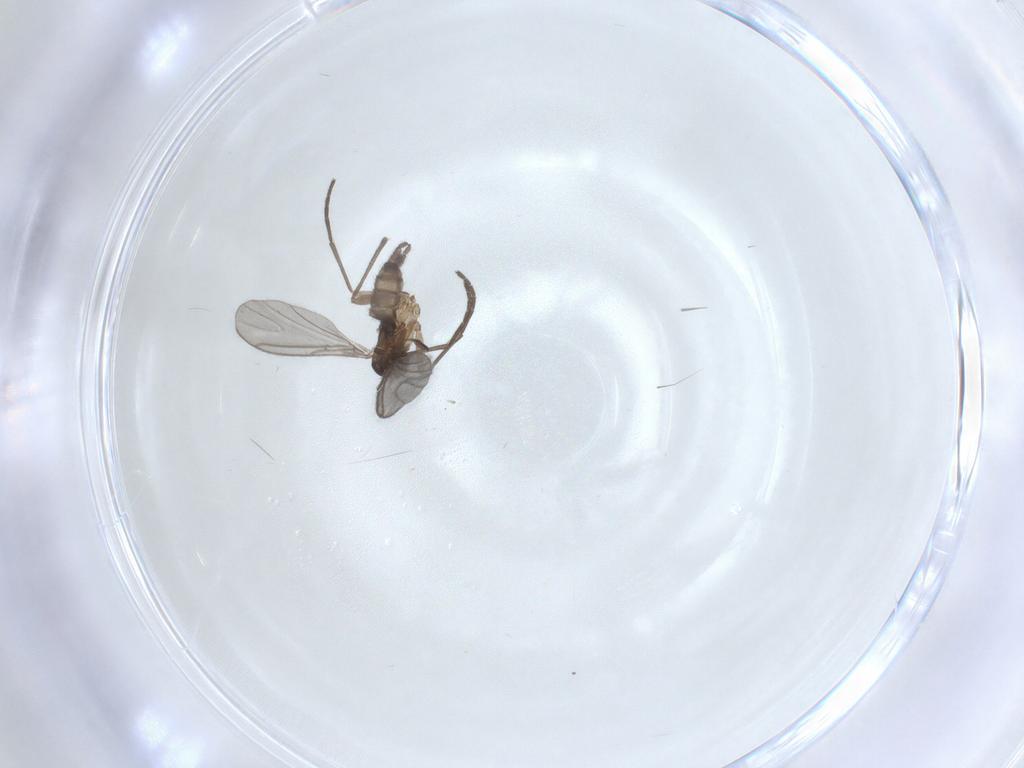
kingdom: Animalia
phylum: Arthropoda
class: Insecta
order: Diptera
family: Sciaridae
